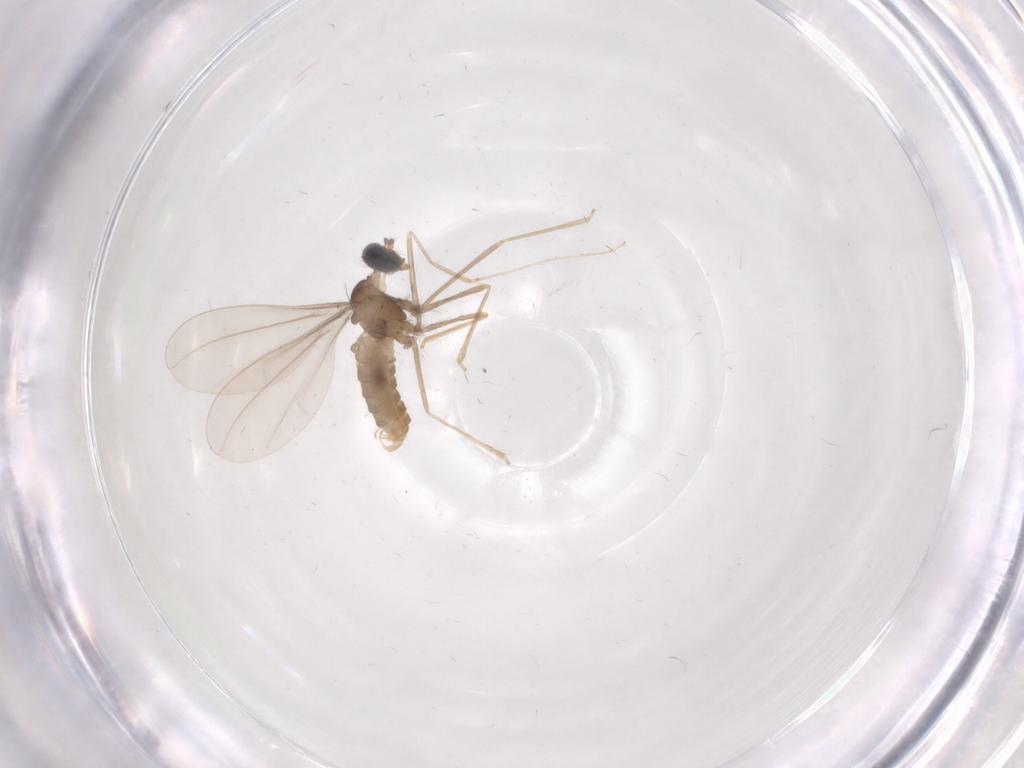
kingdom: Animalia
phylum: Arthropoda
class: Insecta
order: Diptera
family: Cecidomyiidae
